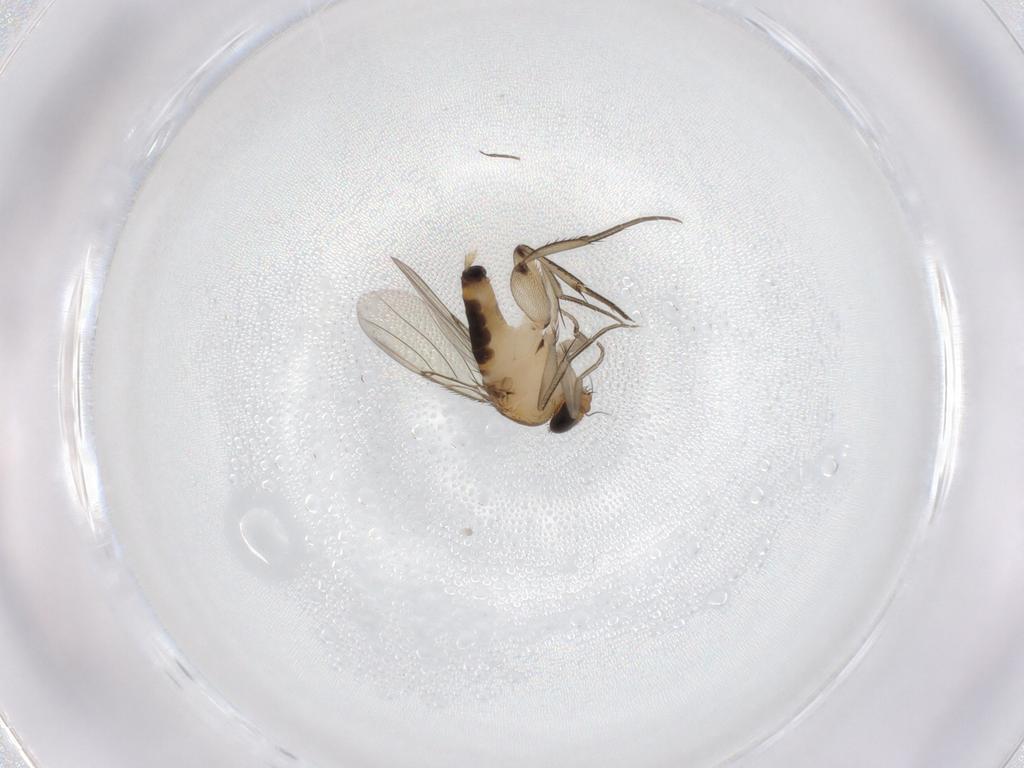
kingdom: Animalia
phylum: Arthropoda
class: Insecta
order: Diptera
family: Phoridae
